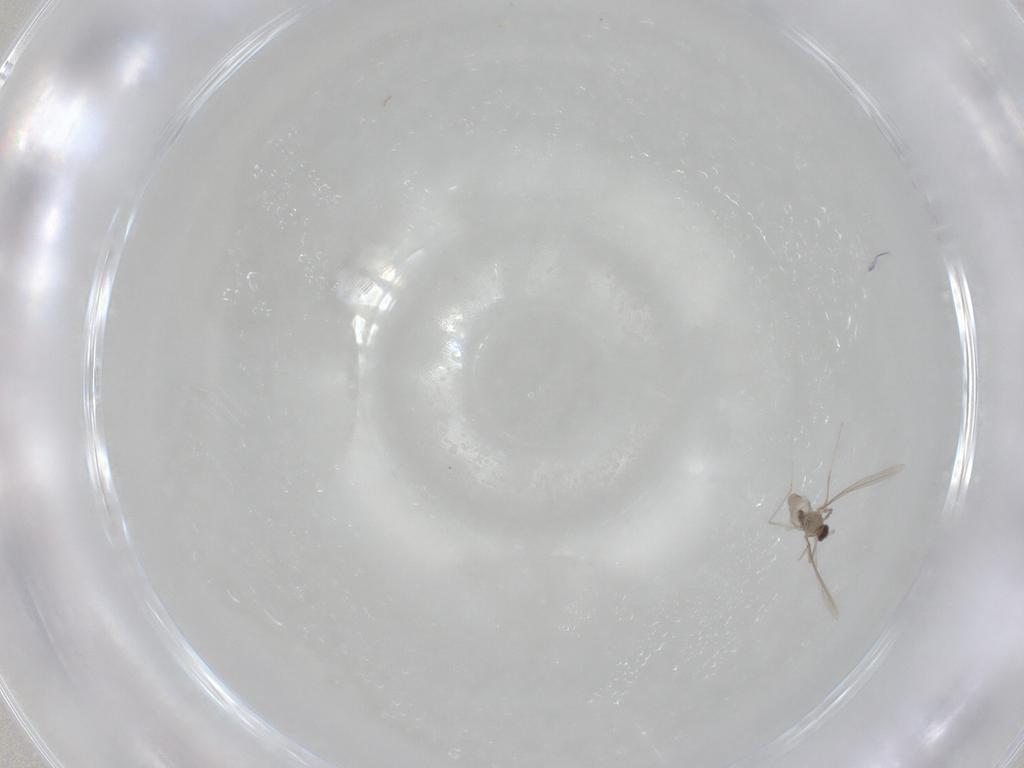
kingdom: Animalia
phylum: Arthropoda
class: Insecta
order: Diptera
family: Cecidomyiidae
